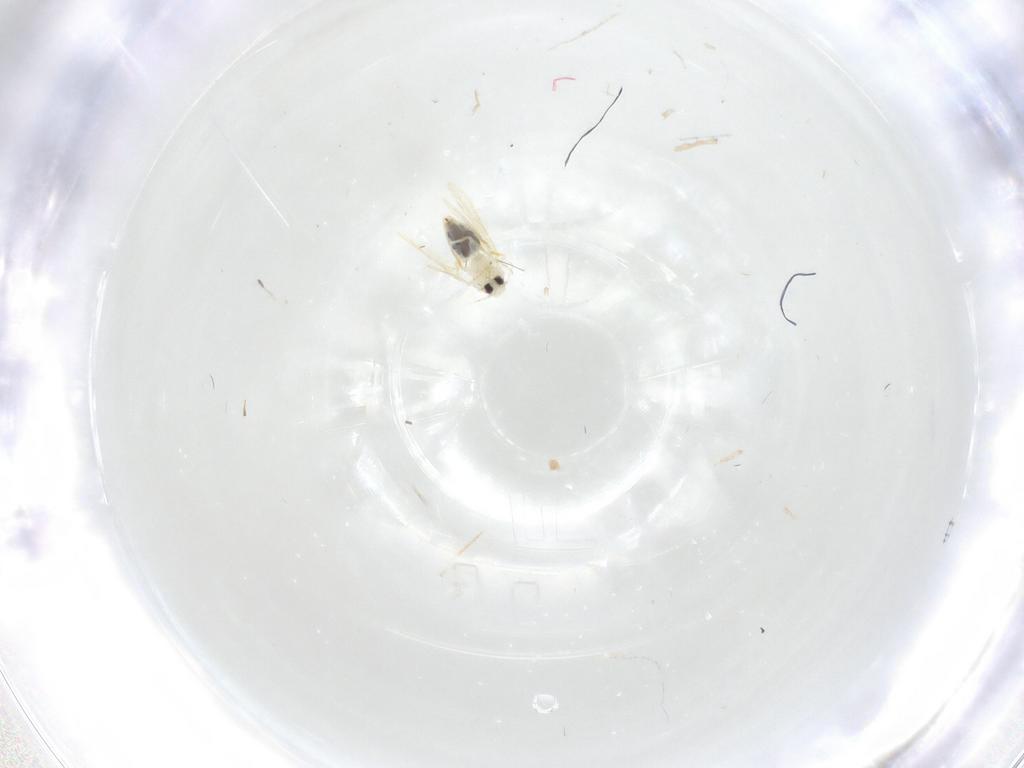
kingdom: Animalia
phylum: Arthropoda
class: Insecta
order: Hemiptera
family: Aleyrodidae
